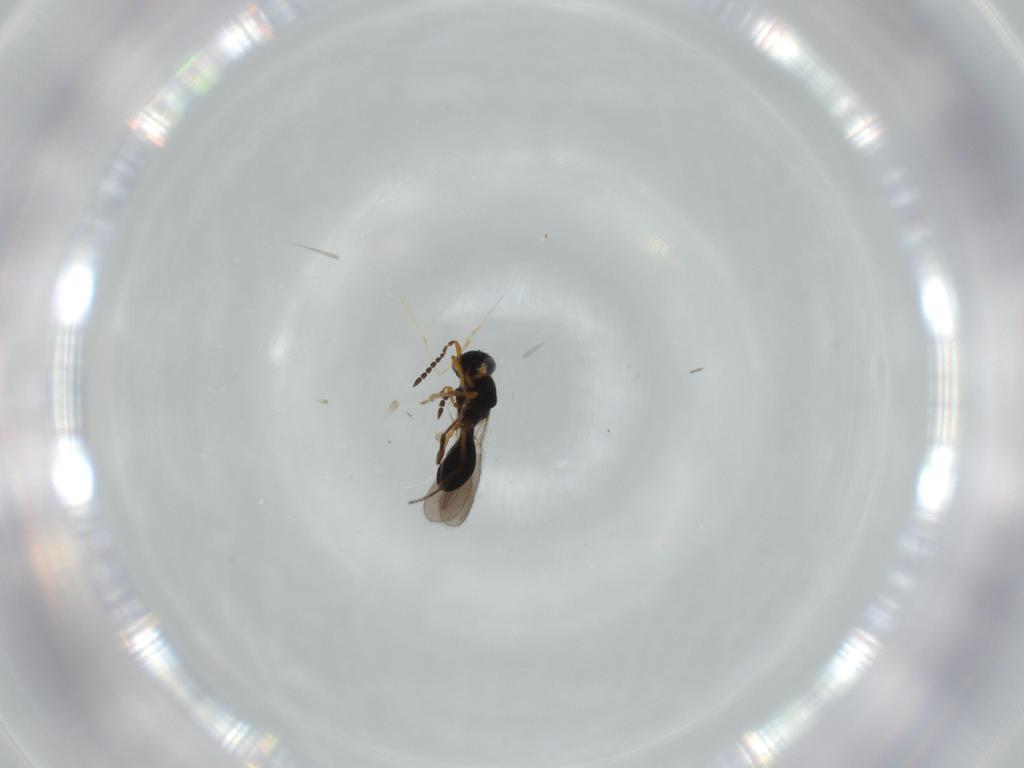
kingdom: Animalia
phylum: Arthropoda
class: Insecta
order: Hymenoptera
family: Platygastridae
